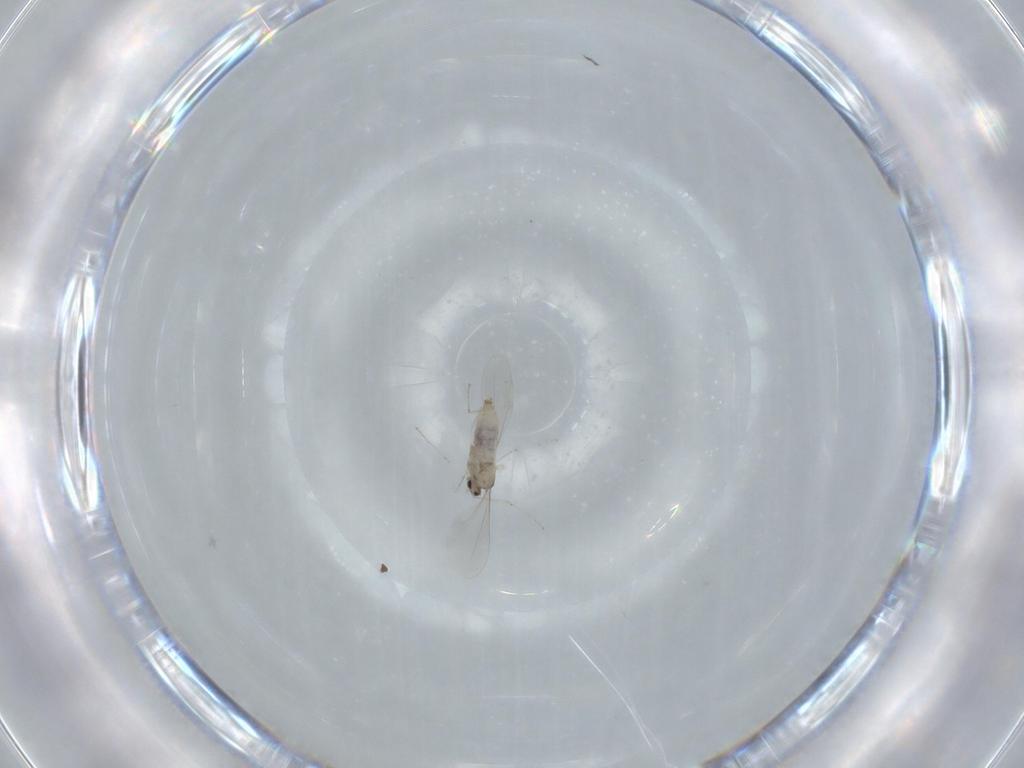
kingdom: Animalia
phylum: Arthropoda
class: Insecta
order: Diptera
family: Cecidomyiidae
